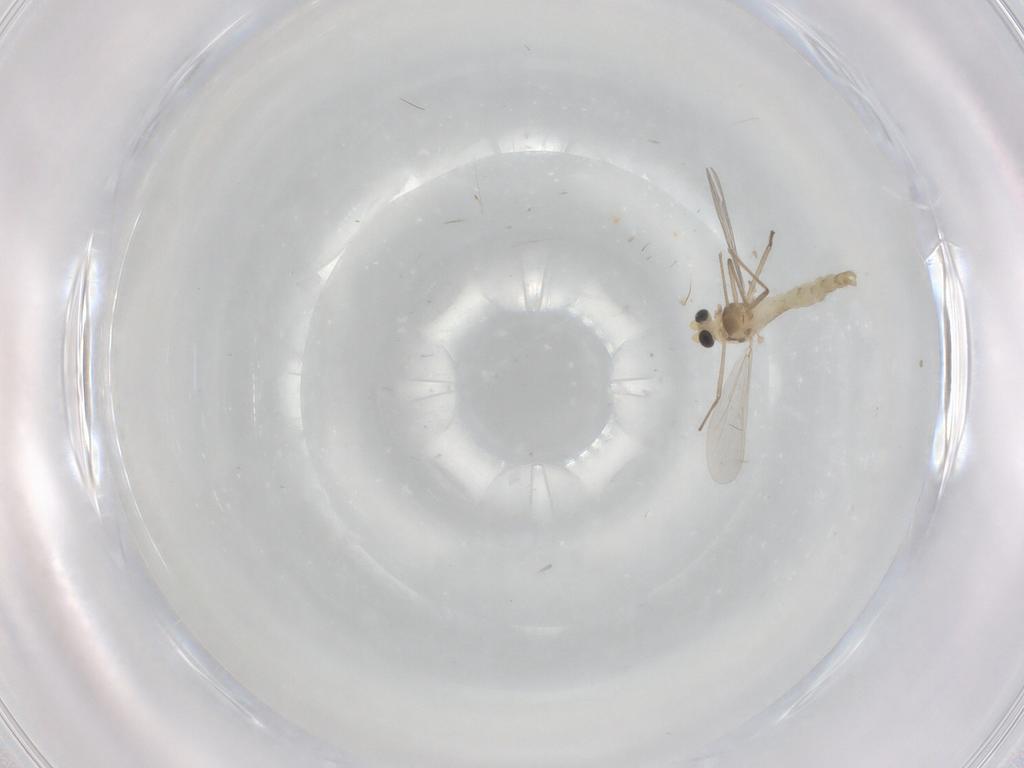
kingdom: Animalia
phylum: Arthropoda
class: Insecta
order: Diptera
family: Chironomidae
